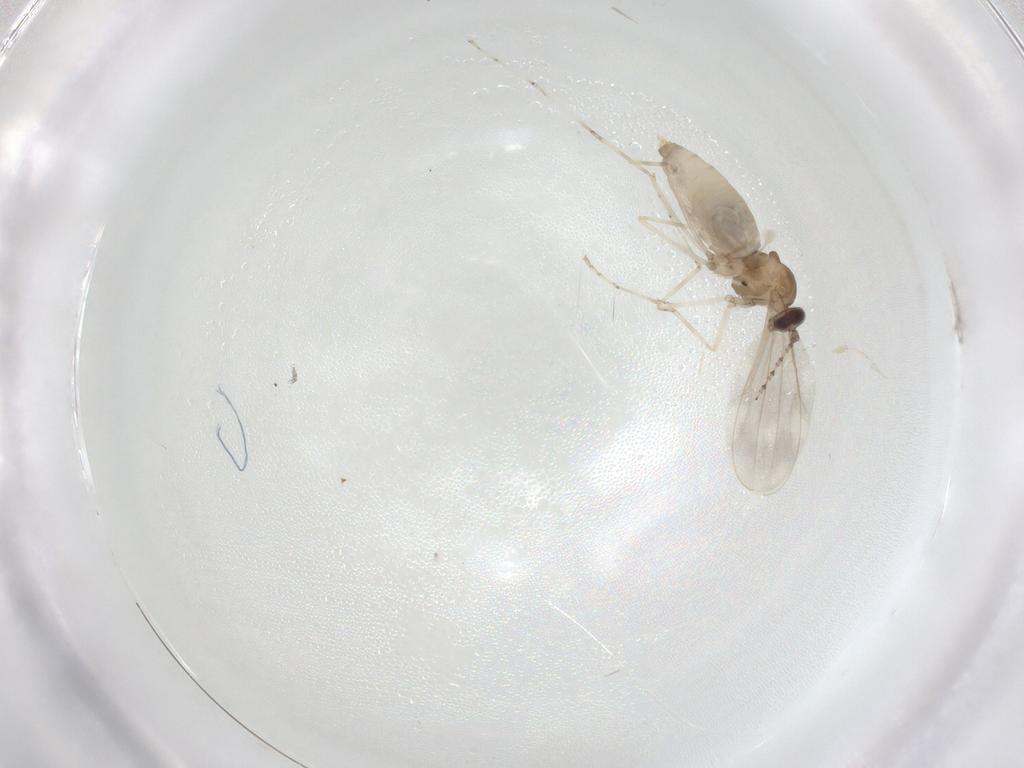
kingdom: Animalia
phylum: Arthropoda
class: Insecta
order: Diptera
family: Cecidomyiidae
